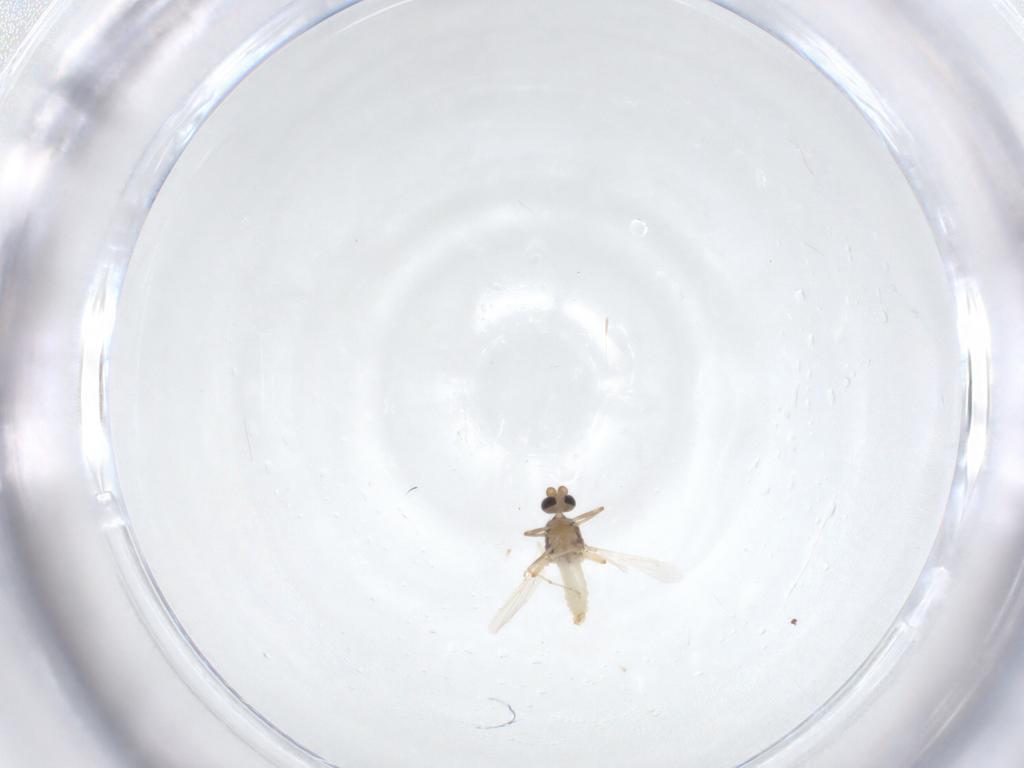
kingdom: Animalia
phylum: Arthropoda
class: Insecta
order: Diptera
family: Ceratopogonidae
